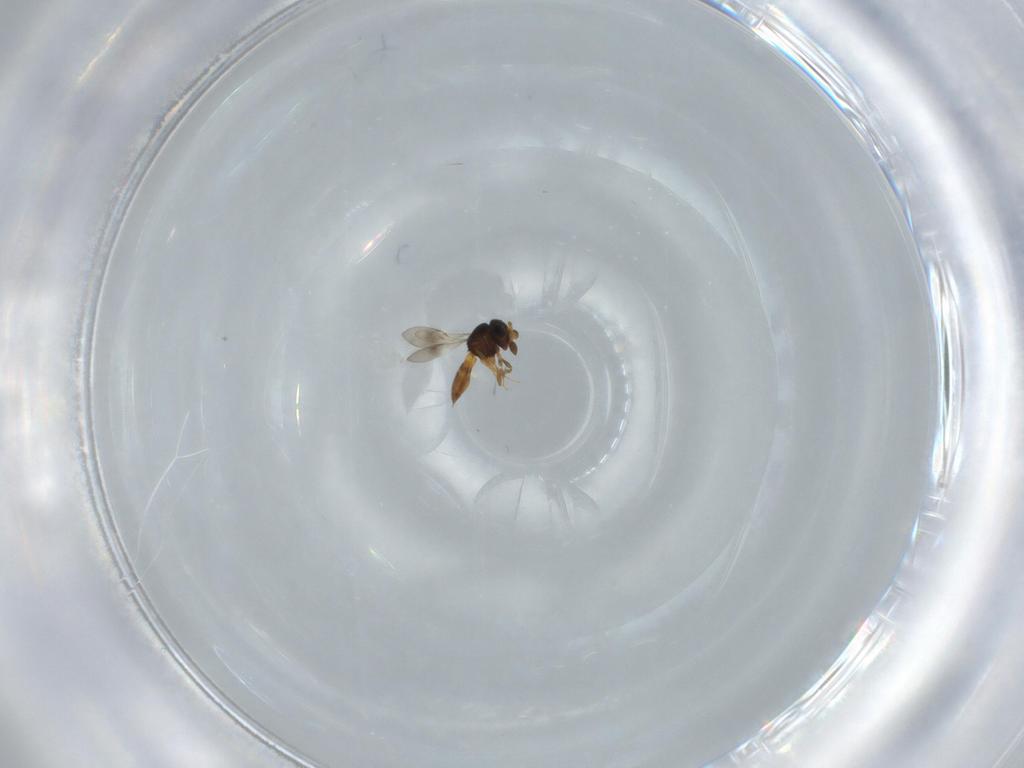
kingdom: Animalia
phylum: Arthropoda
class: Insecta
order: Hymenoptera
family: Scelionidae
